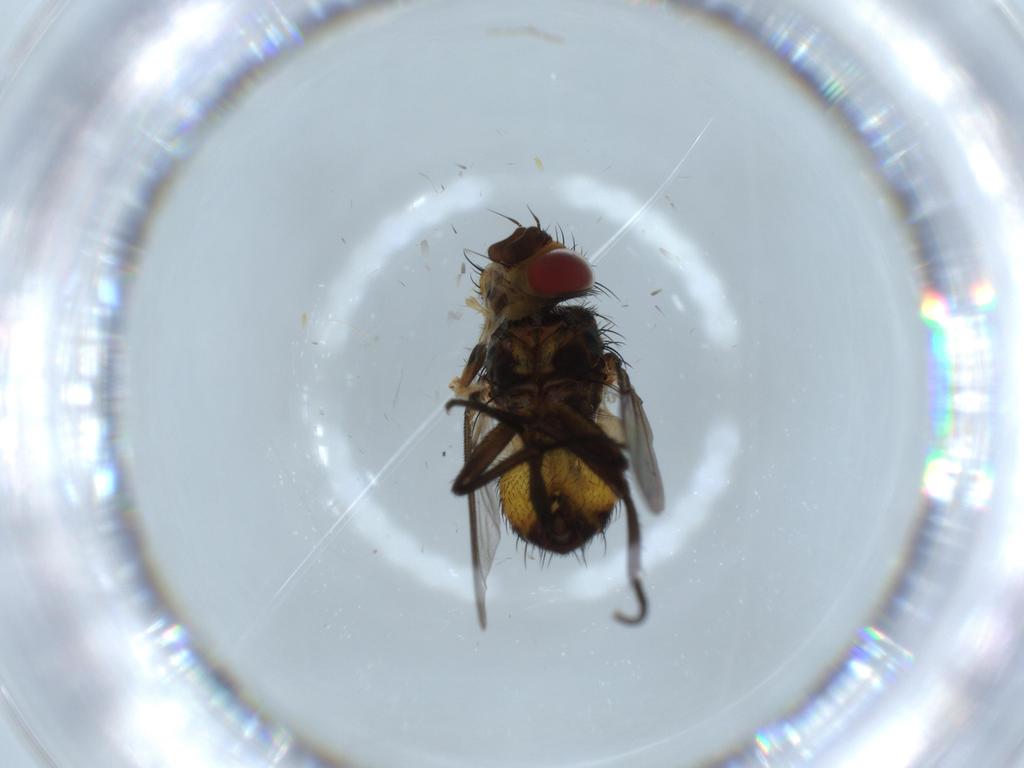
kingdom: Animalia
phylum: Arthropoda
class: Insecta
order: Diptera
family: Tachinidae
